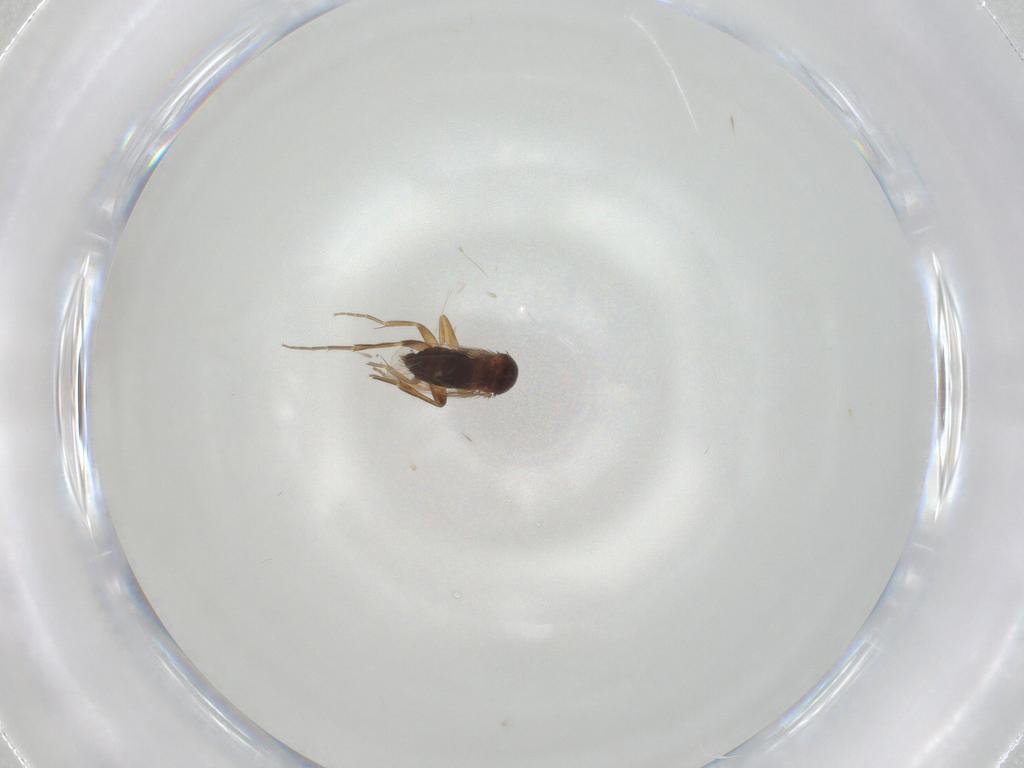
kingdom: Animalia
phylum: Arthropoda
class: Insecta
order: Diptera
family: Phoridae
